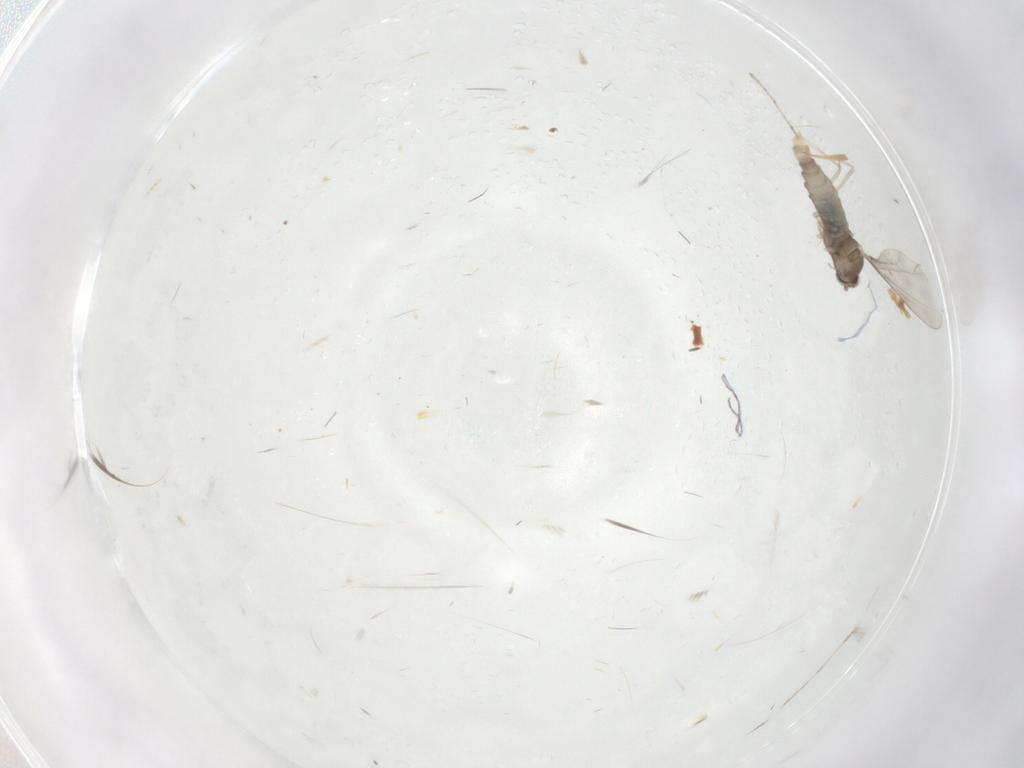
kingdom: Animalia
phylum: Arthropoda
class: Insecta
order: Diptera
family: Cecidomyiidae
